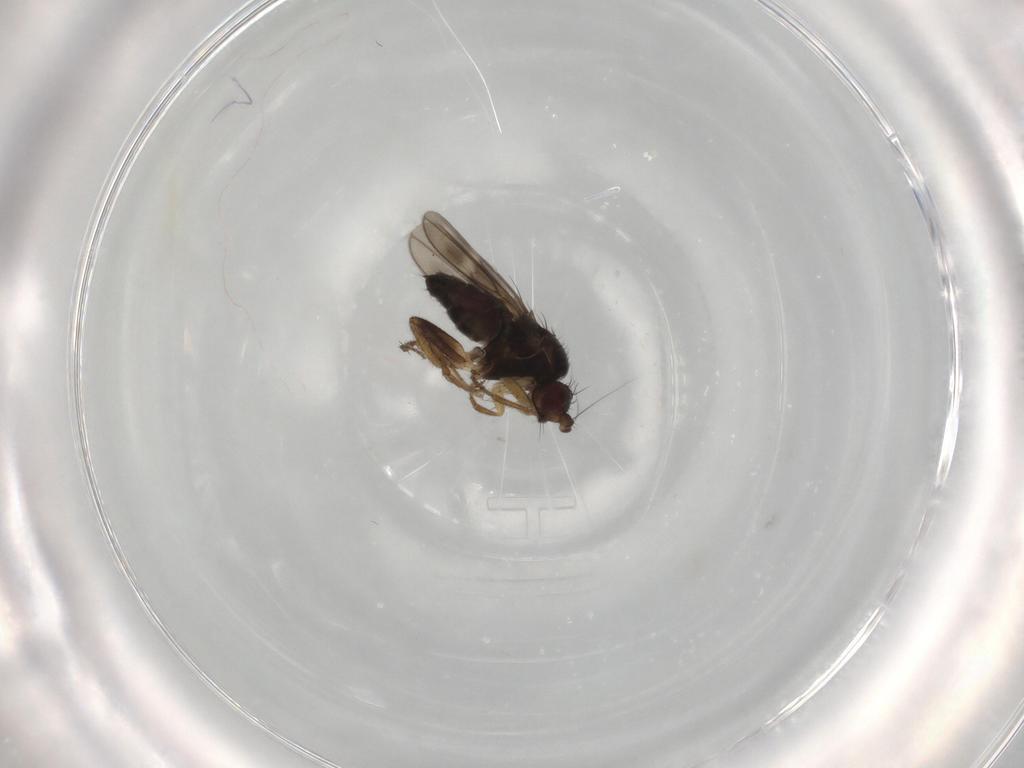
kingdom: Animalia
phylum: Arthropoda
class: Insecta
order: Diptera
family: Sphaeroceridae
